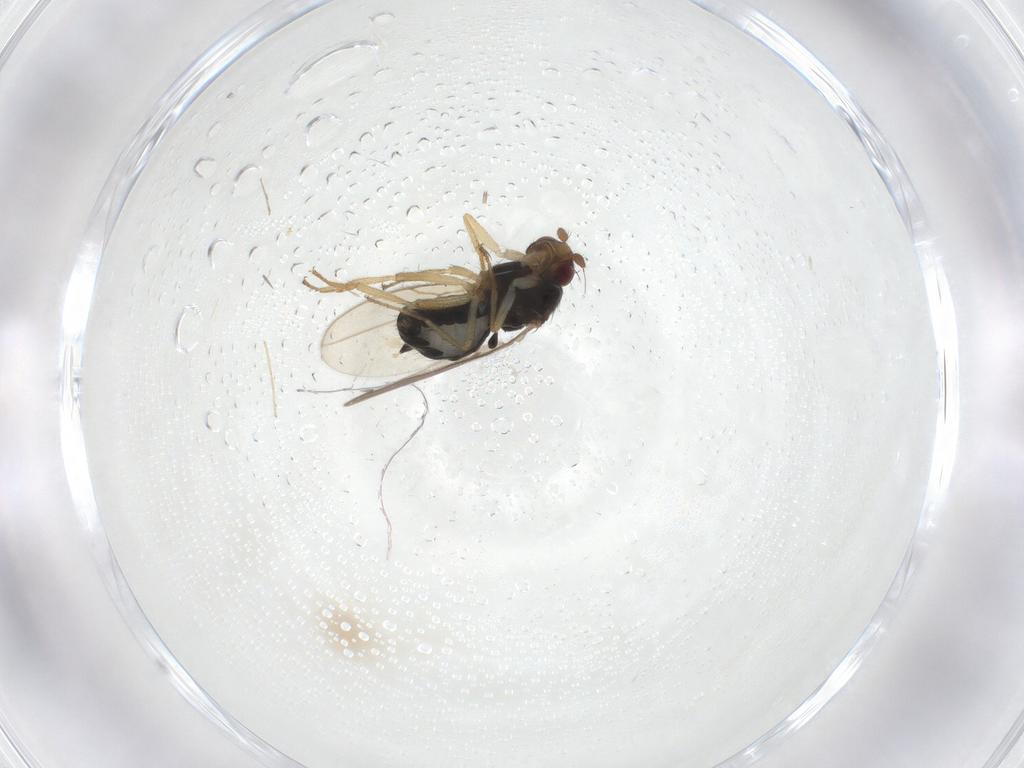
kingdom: Animalia
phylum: Arthropoda
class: Insecta
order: Diptera
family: Sphaeroceridae
